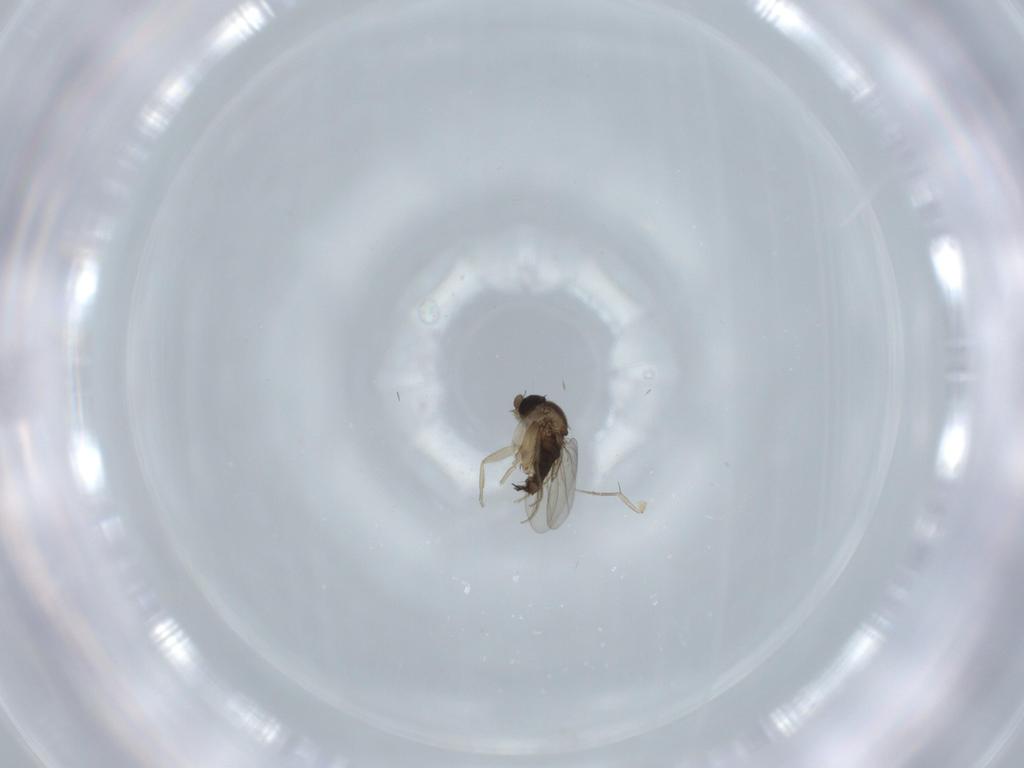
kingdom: Animalia
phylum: Arthropoda
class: Insecta
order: Diptera
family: Phoridae
